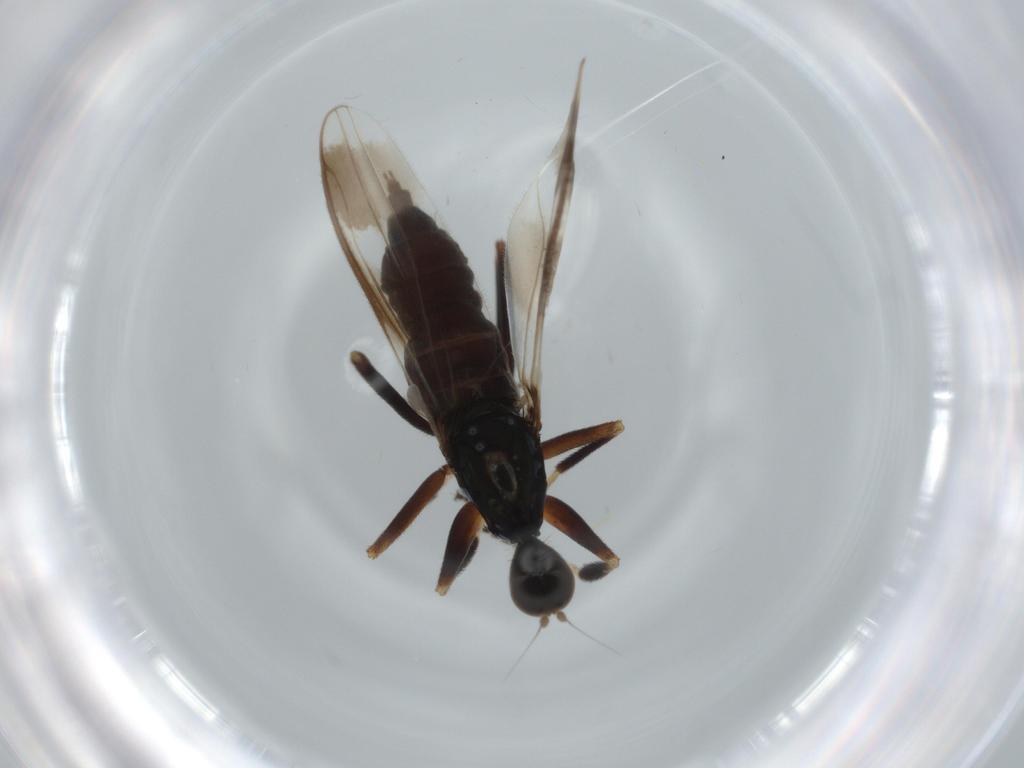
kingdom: Animalia
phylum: Arthropoda
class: Insecta
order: Diptera
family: Hybotidae
